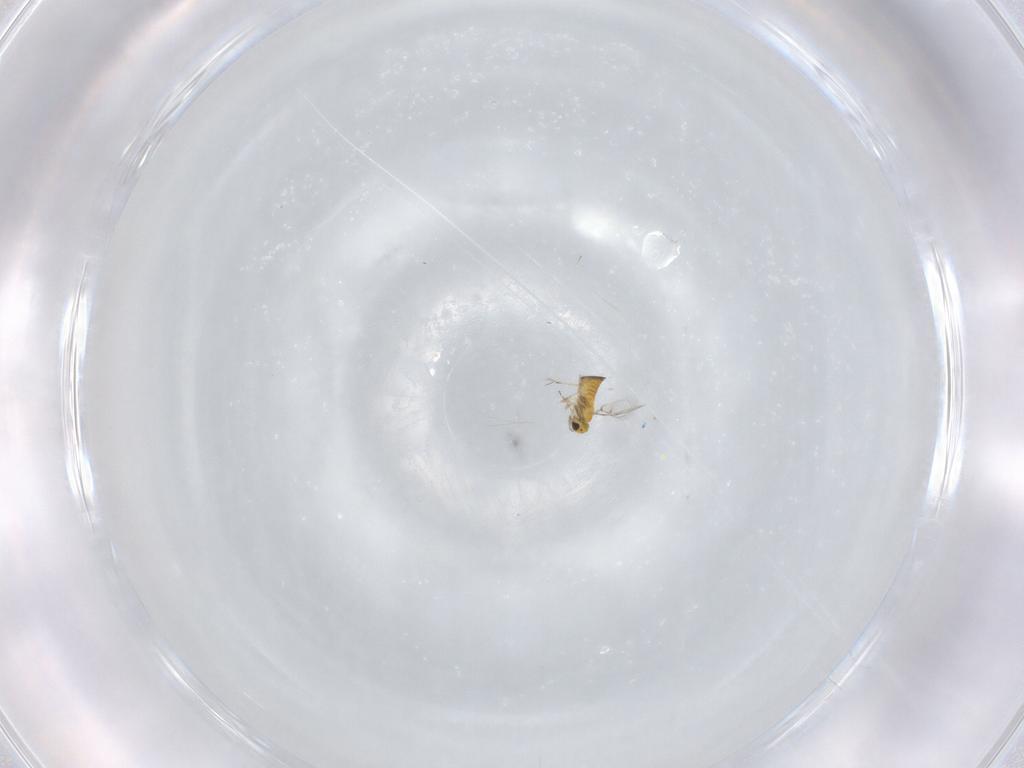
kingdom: Animalia
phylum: Arthropoda
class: Insecta
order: Hymenoptera
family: Trichogrammatidae
